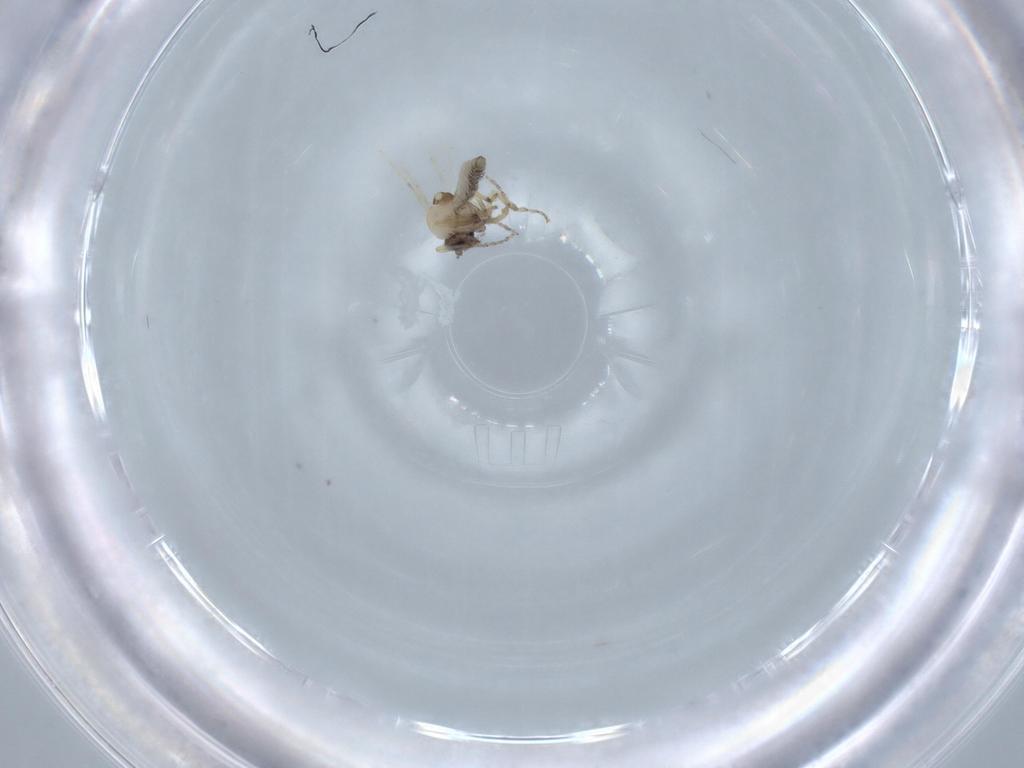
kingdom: Animalia
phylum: Arthropoda
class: Insecta
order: Diptera
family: Ceratopogonidae
